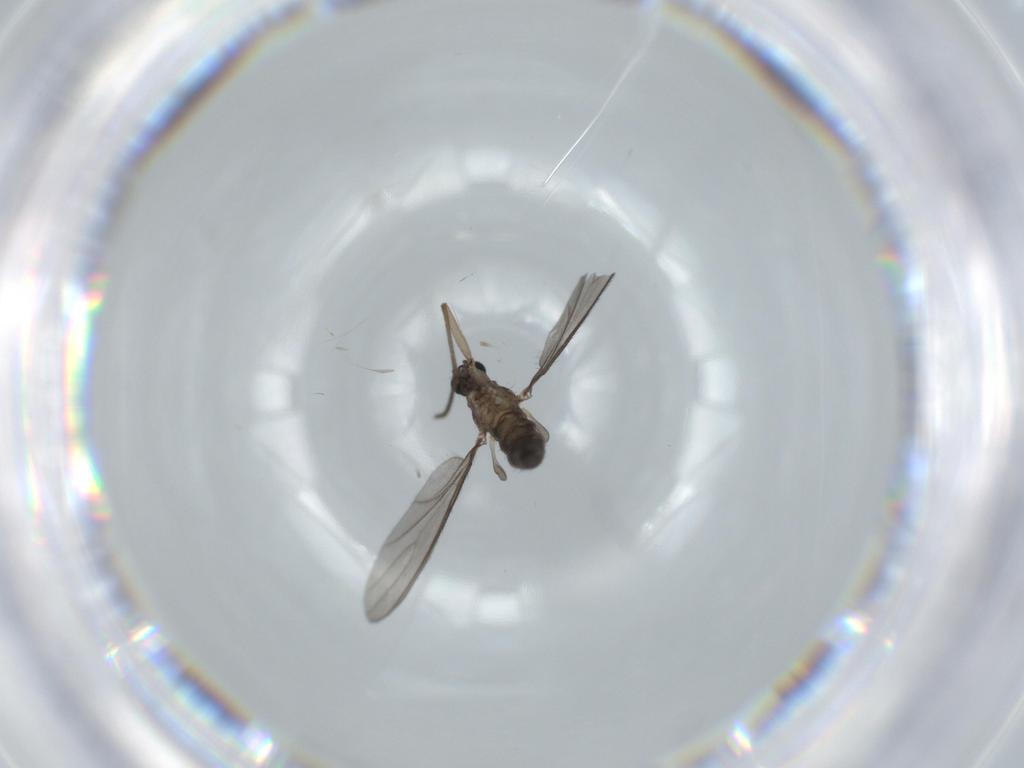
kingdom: Animalia
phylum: Arthropoda
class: Insecta
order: Diptera
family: Sciaridae
